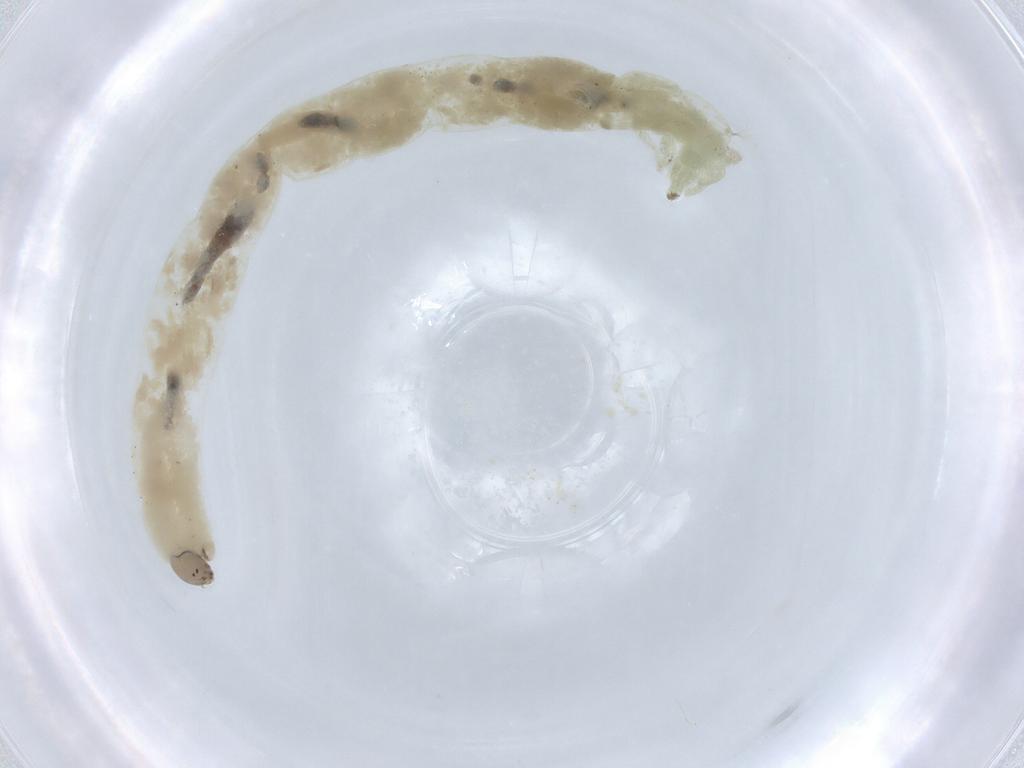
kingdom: Animalia
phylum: Arthropoda
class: Insecta
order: Diptera
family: Chironomidae
